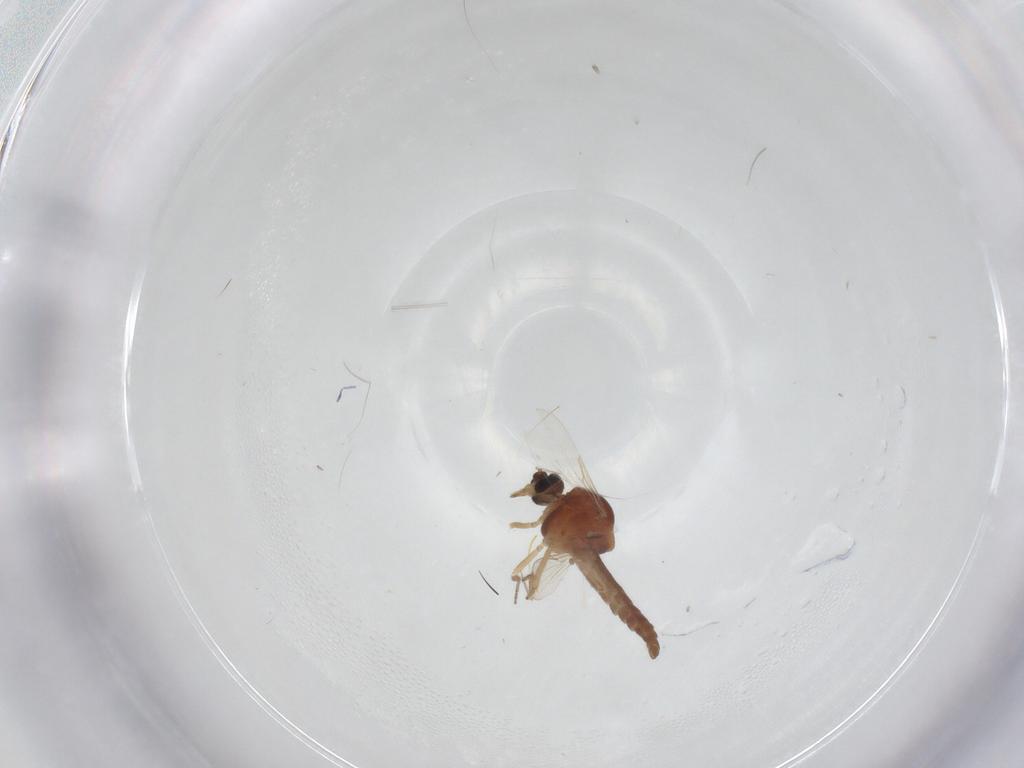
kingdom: Animalia
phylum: Arthropoda
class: Insecta
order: Diptera
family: Ceratopogonidae
